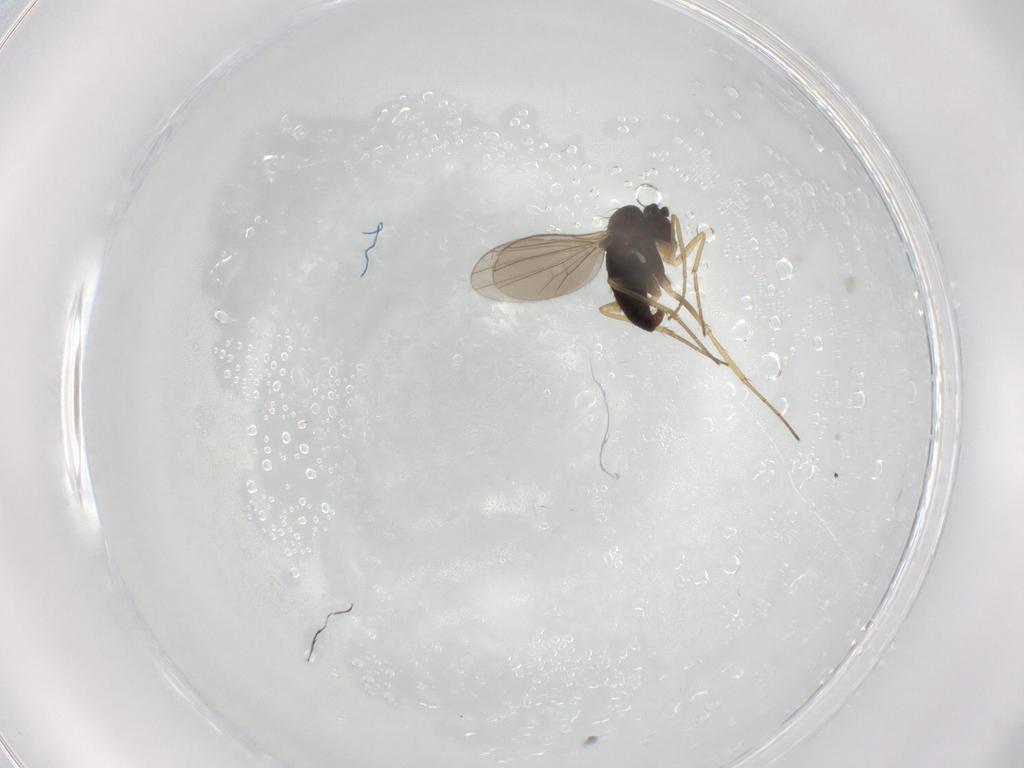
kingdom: Animalia
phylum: Arthropoda
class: Insecta
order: Diptera
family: Dolichopodidae
